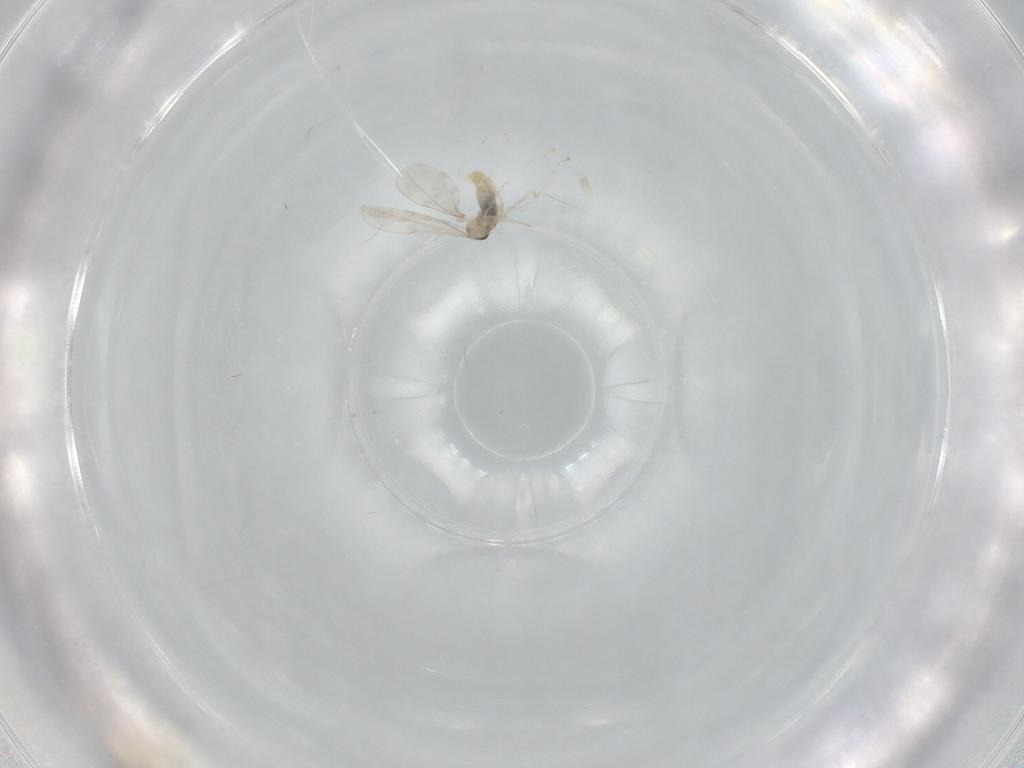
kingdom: Animalia
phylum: Arthropoda
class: Insecta
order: Diptera
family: Cecidomyiidae
